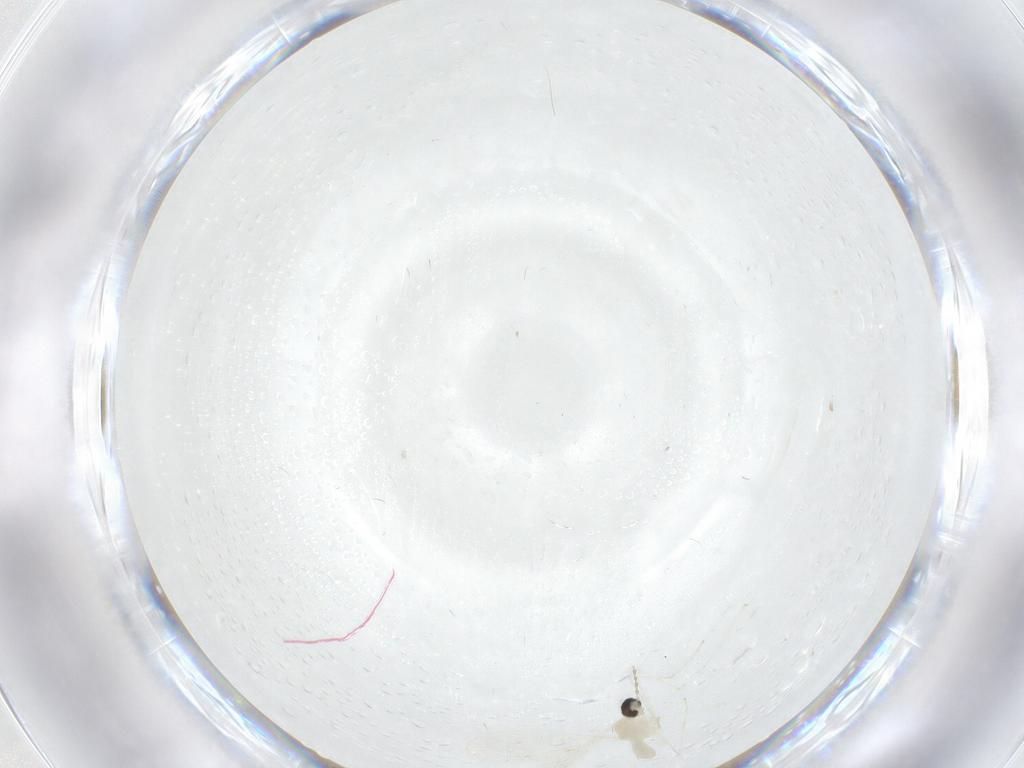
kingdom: Animalia
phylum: Arthropoda
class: Insecta
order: Diptera
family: Cecidomyiidae
